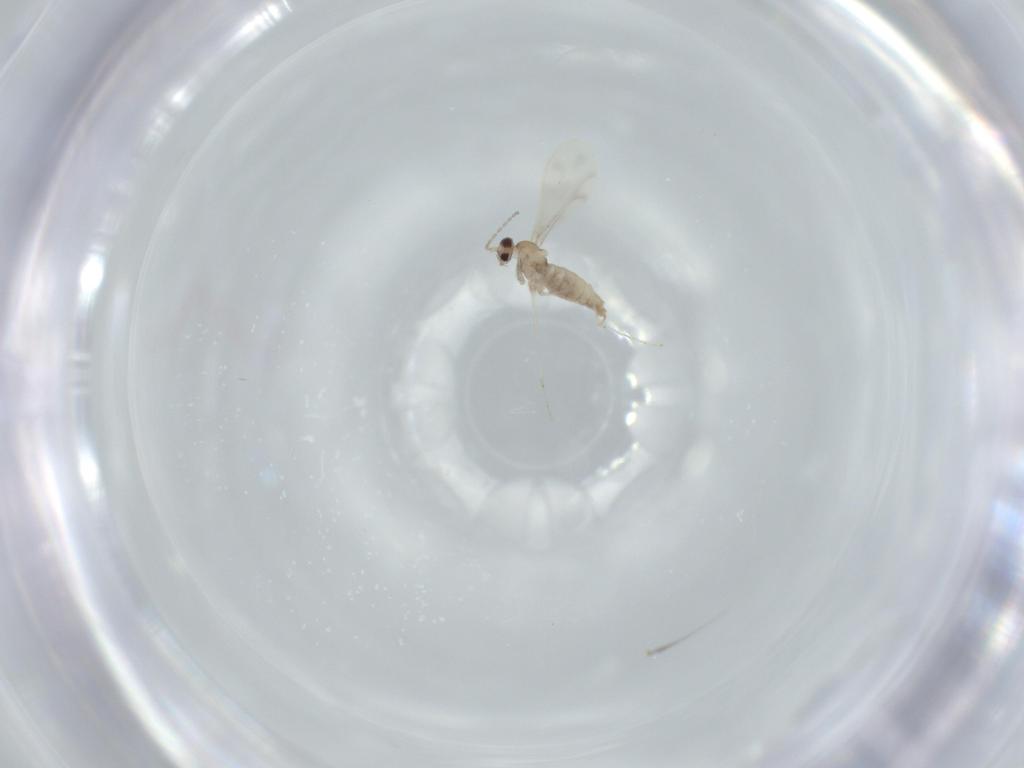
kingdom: Animalia
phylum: Arthropoda
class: Insecta
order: Diptera
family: Cecidomyiidae
